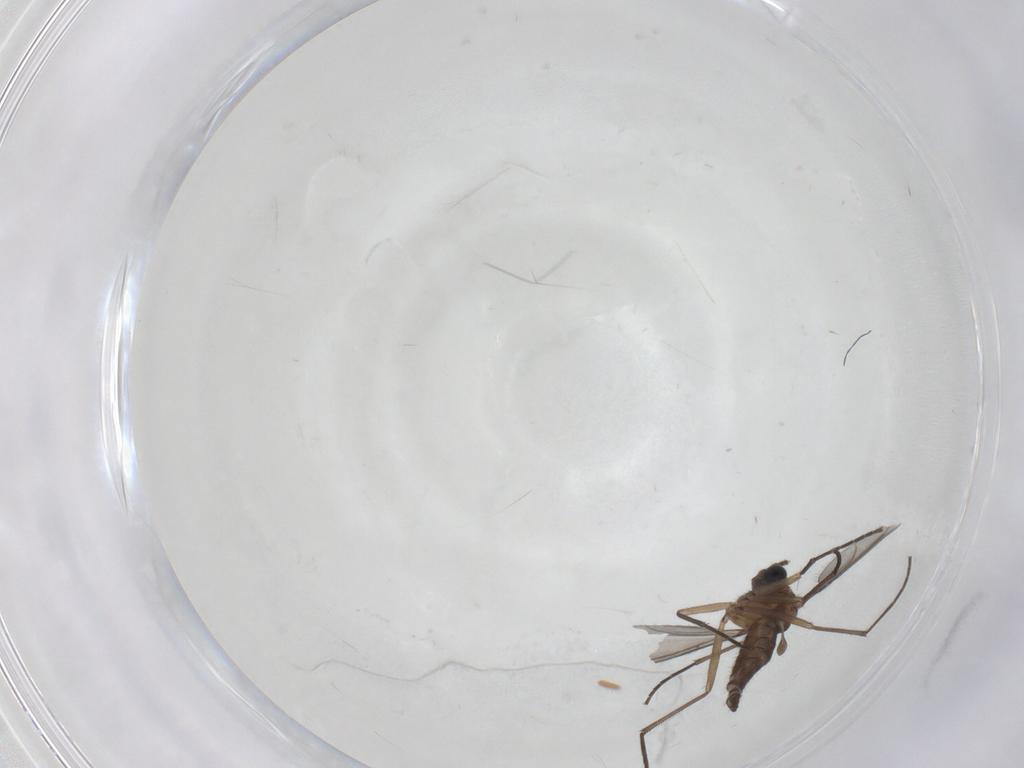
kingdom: Animalia
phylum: Arthropoda
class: Insecta
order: Diptera
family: Sciaridae
